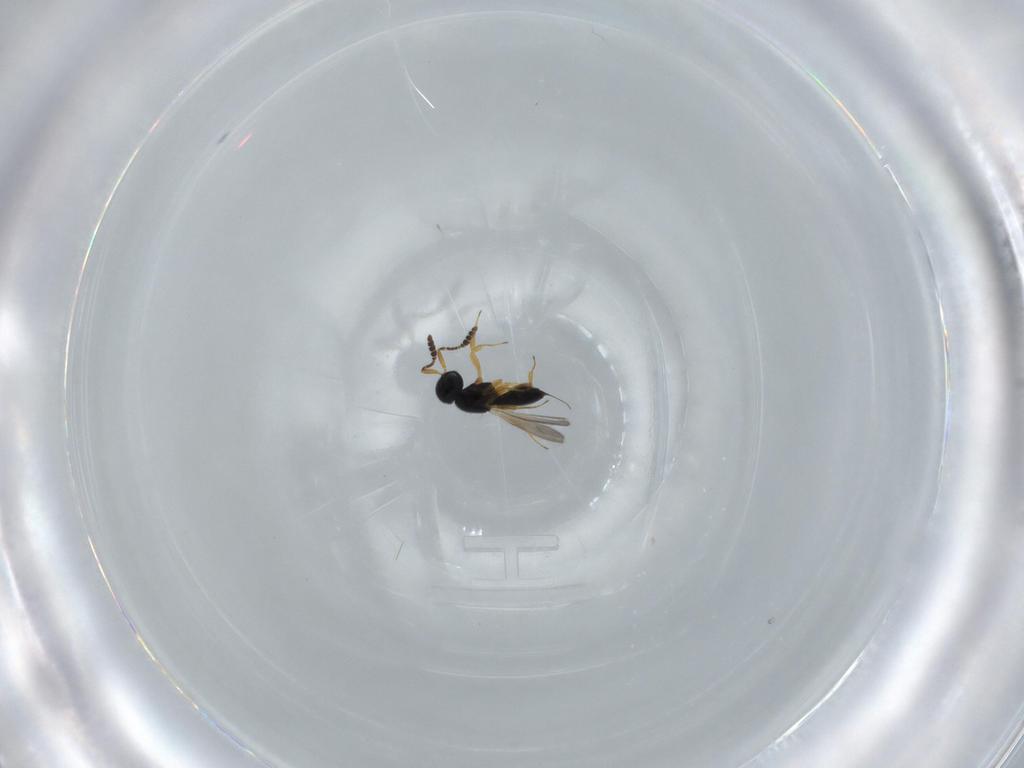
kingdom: Animalia
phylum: Arthropoda
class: Insecta
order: Hymenoptera
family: Scelionidae
